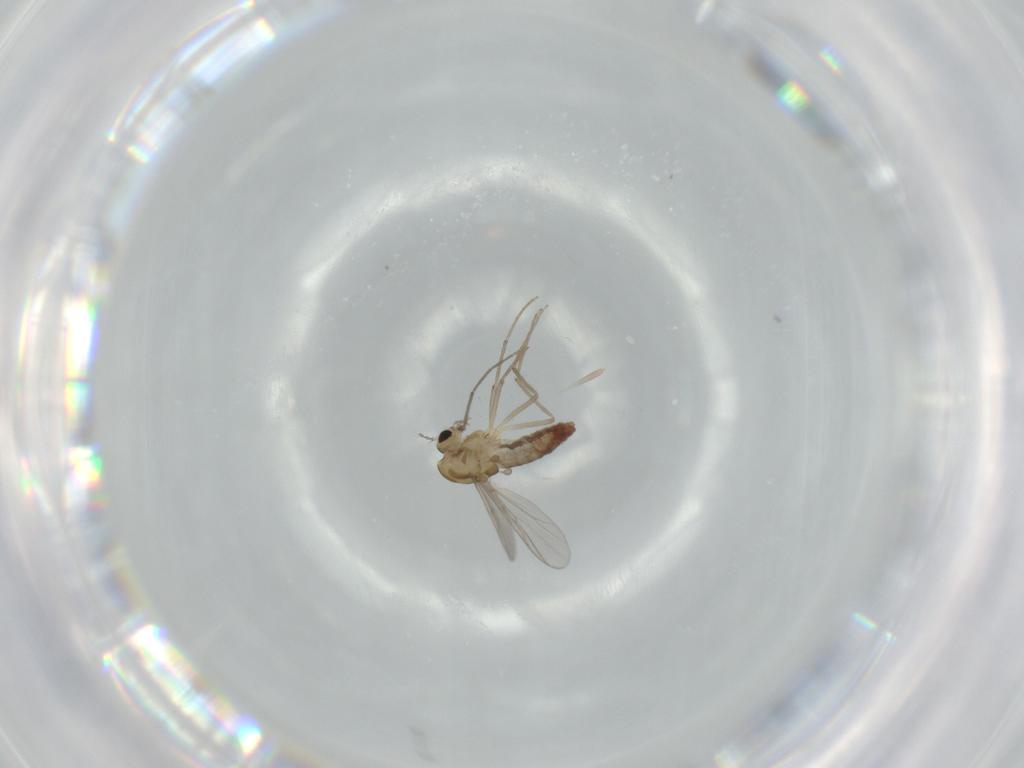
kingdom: Animalia
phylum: Arthropoda
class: Insecta
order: Diptera
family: Chironomidae
